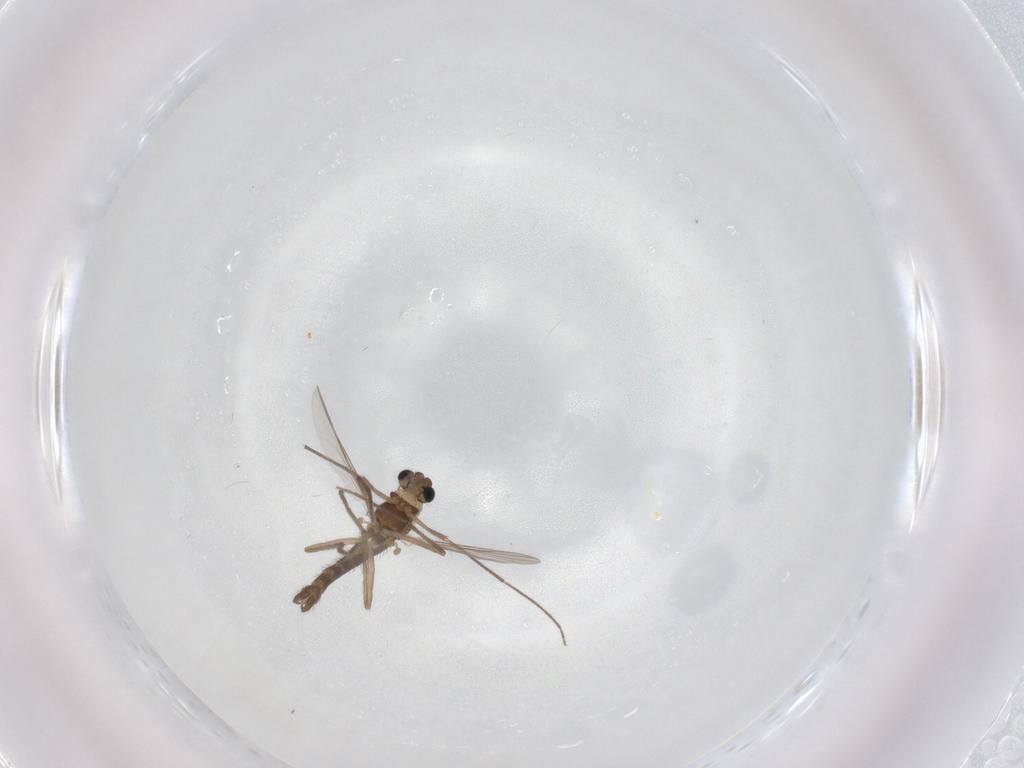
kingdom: Animalia
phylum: Arthropoda
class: Insecta
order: Diptera
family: Chironomidae
